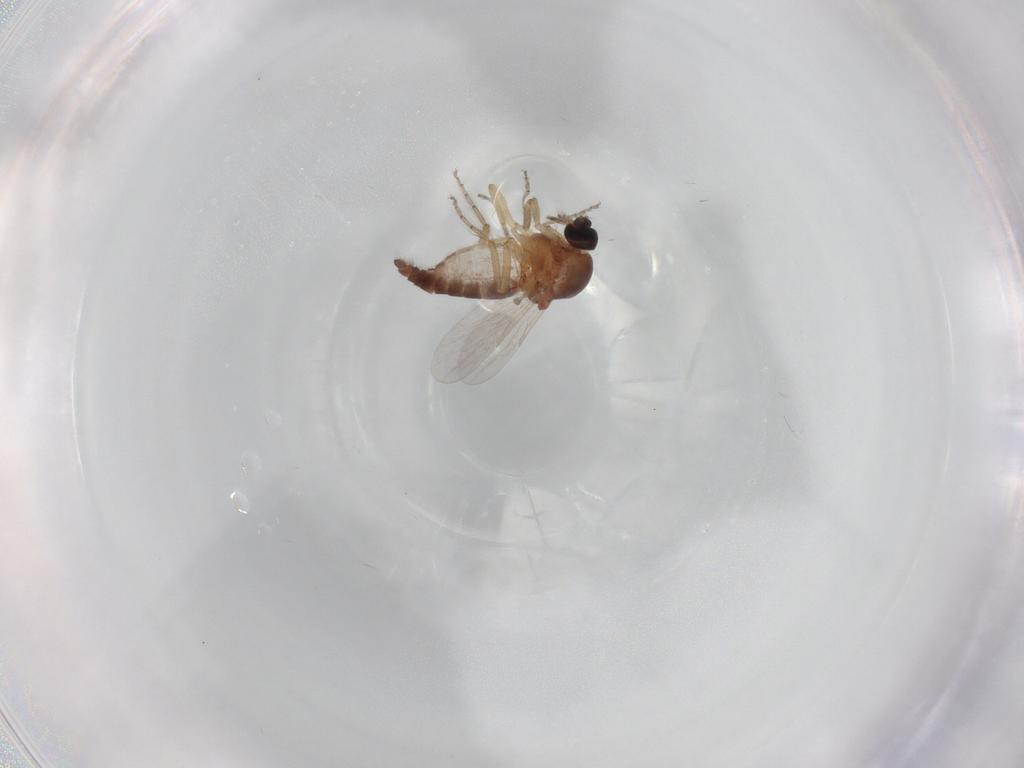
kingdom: Animalia
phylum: Arthropoda
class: Insecta
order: Diptera
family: Ceratopogonidae
